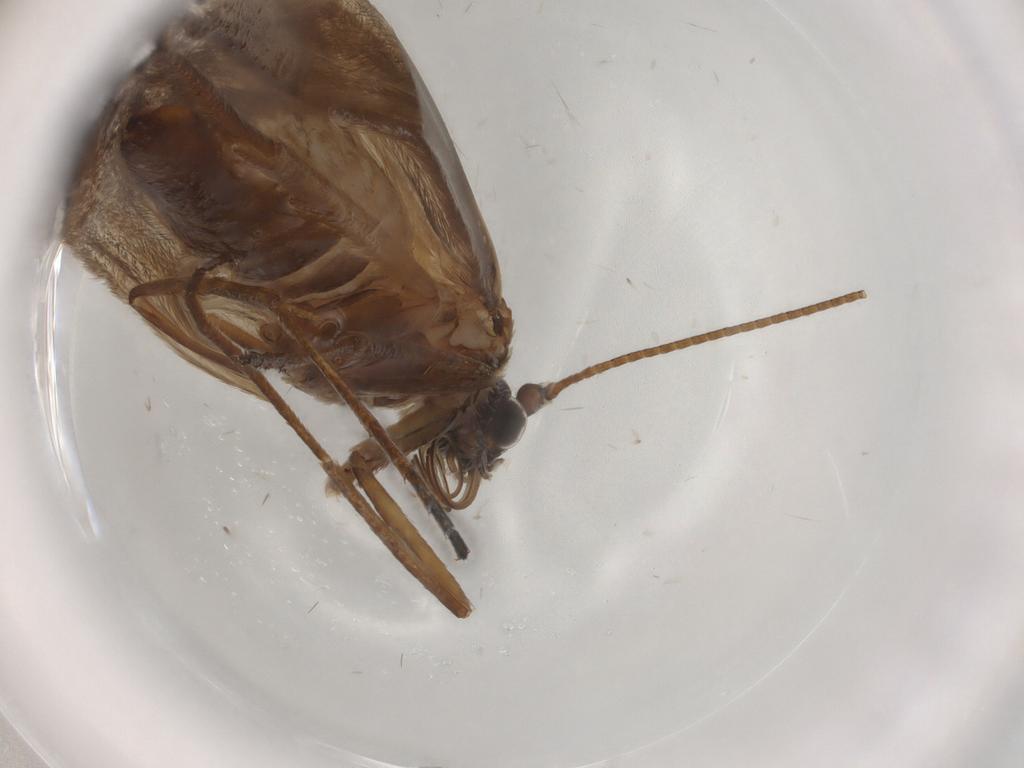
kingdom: Animalia
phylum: Arthropoda
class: Insecta
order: Lepidoptera
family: Adelidae
